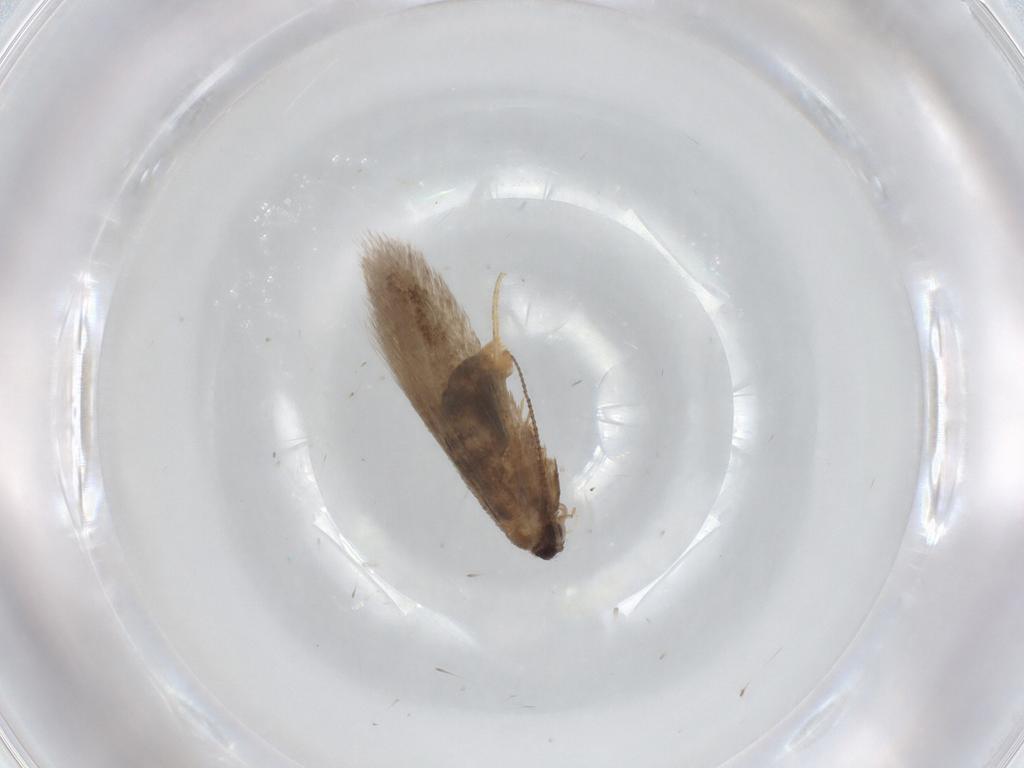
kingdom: Animalia
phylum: Arthropoda
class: Insecta
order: Lepidoptera
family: Nepticulidae
